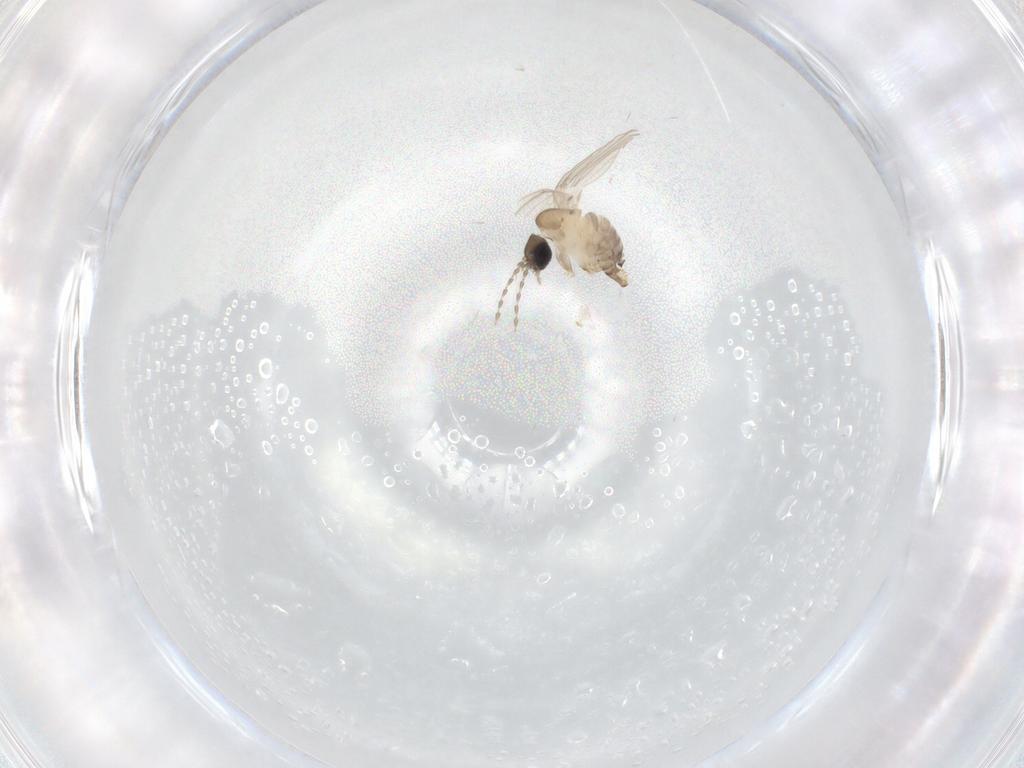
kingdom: Animalia
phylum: Arthropoda
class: Insecta
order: Diptera
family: Psychodidae
